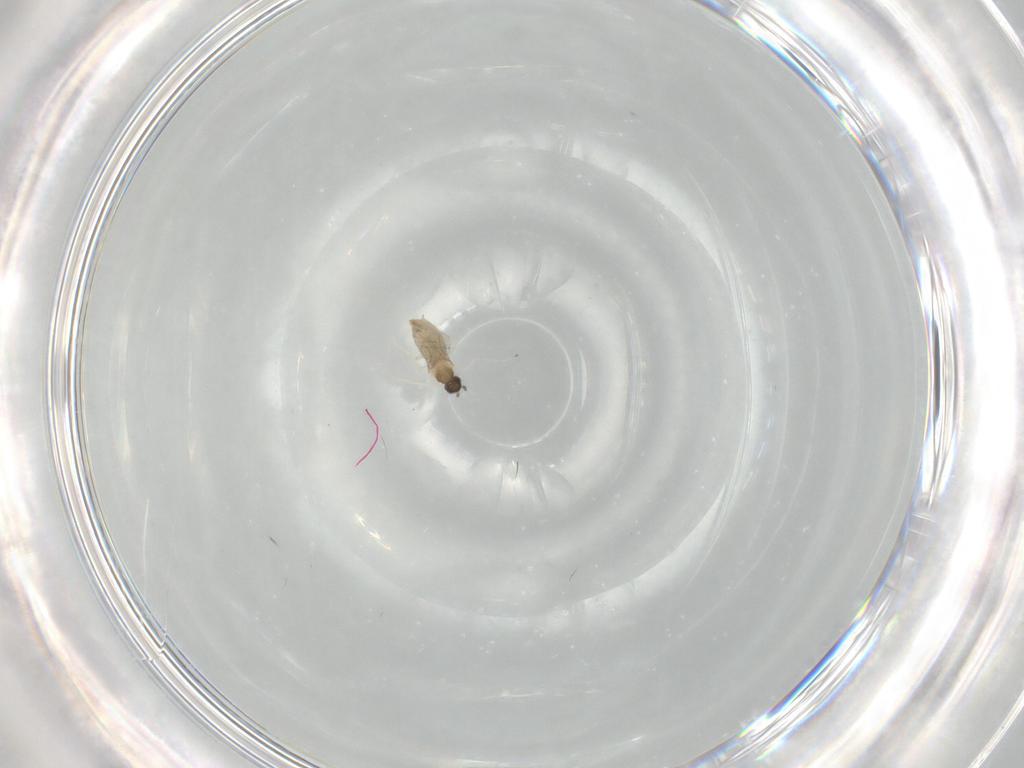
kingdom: Animalia
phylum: Arthropoda
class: Insecta
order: Diptera
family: Cecidomyiidae
